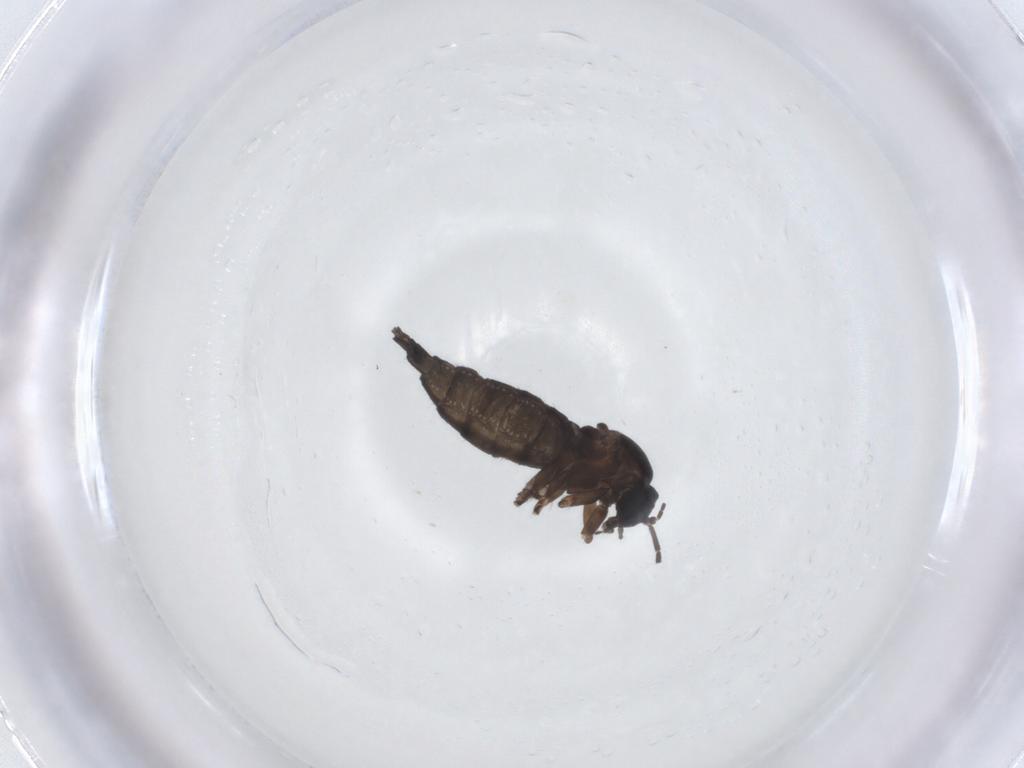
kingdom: Animalia
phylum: Arthropoda
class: Insecta
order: Diptera
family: Sciaridae
